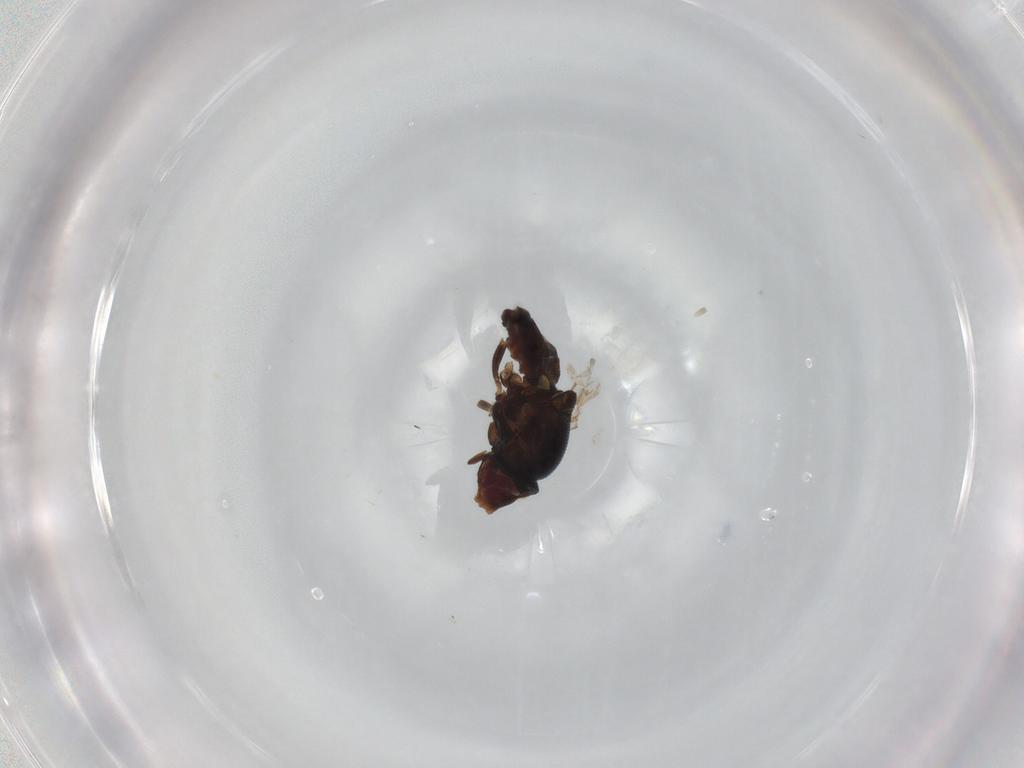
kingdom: Animalia
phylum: Arthropoda
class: Insecta
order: Diptera
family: Chloropidae
